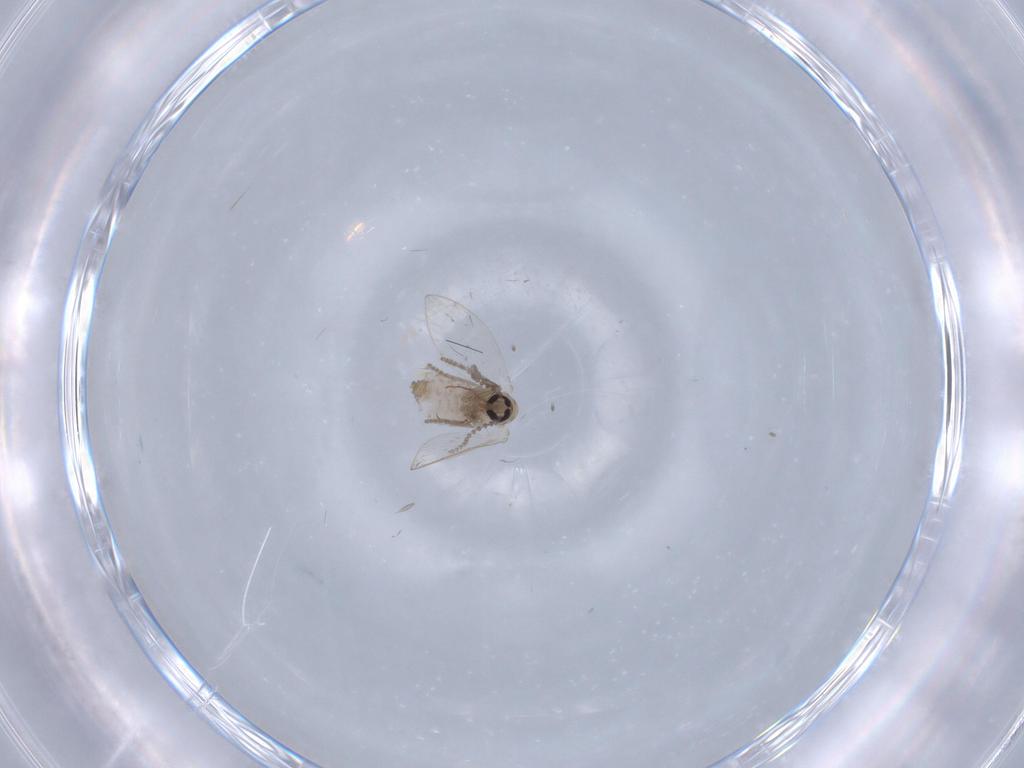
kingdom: Animalia
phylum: Arthropoda
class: Insecta
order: Diptera
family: Psychodidae
